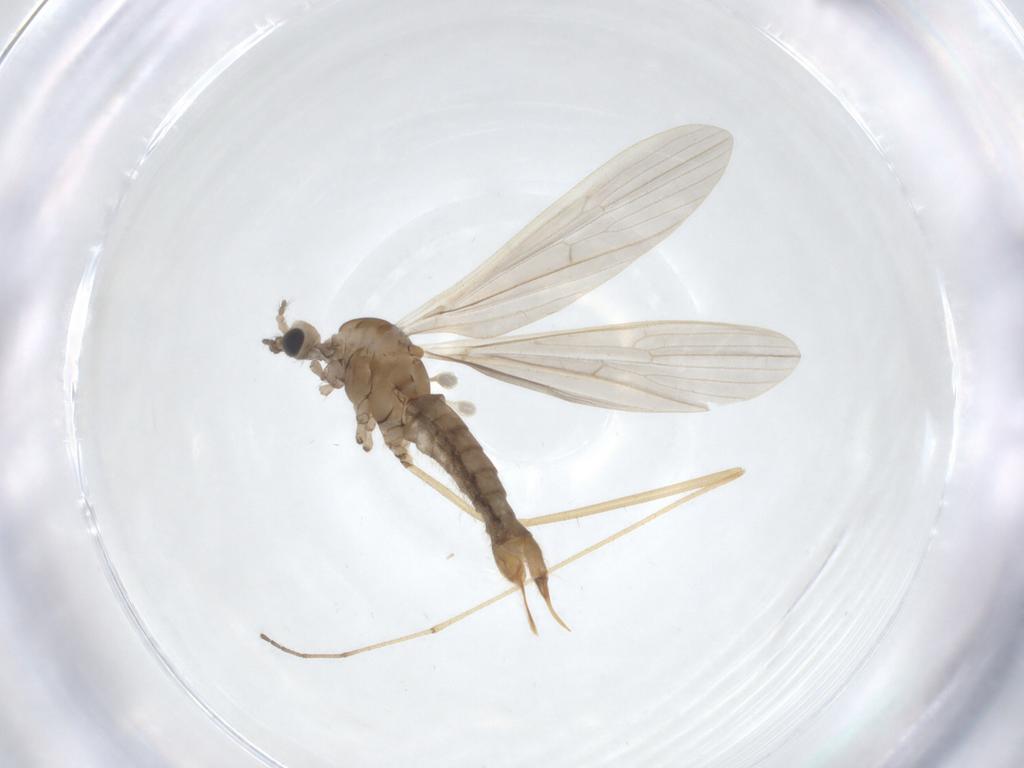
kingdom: Animalia
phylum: Arthropoda
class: Insecta
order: Diptera
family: Limoniidae
